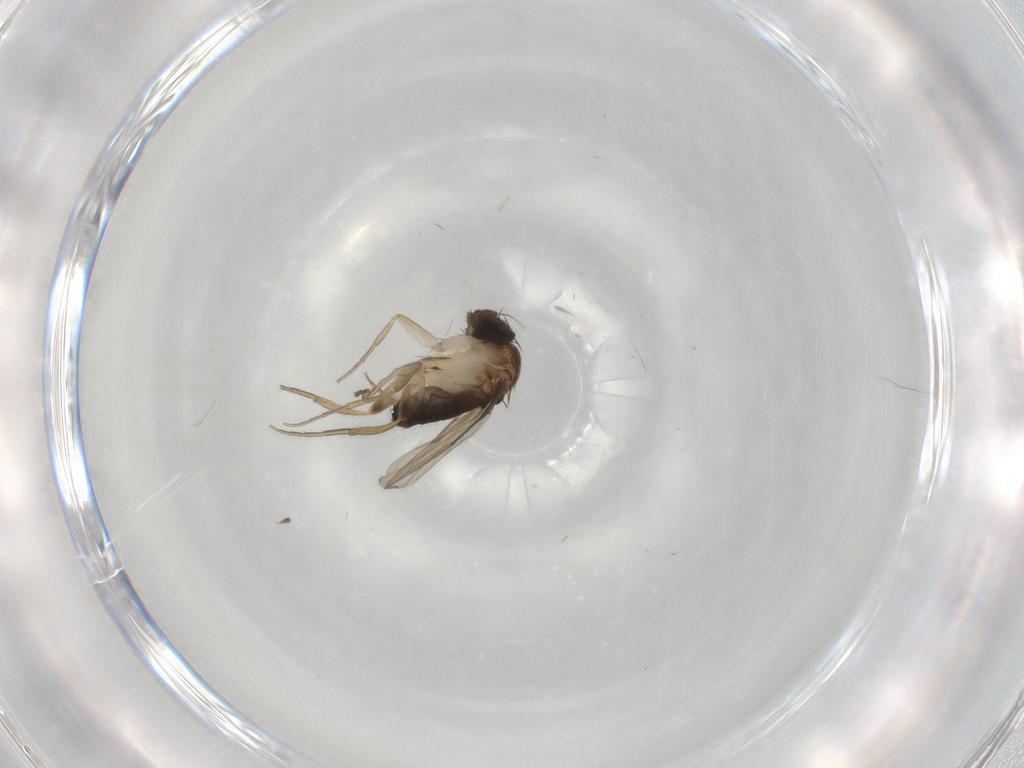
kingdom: Animalia
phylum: Arthropoda
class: Insecta
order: Diptera
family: Phoridae
